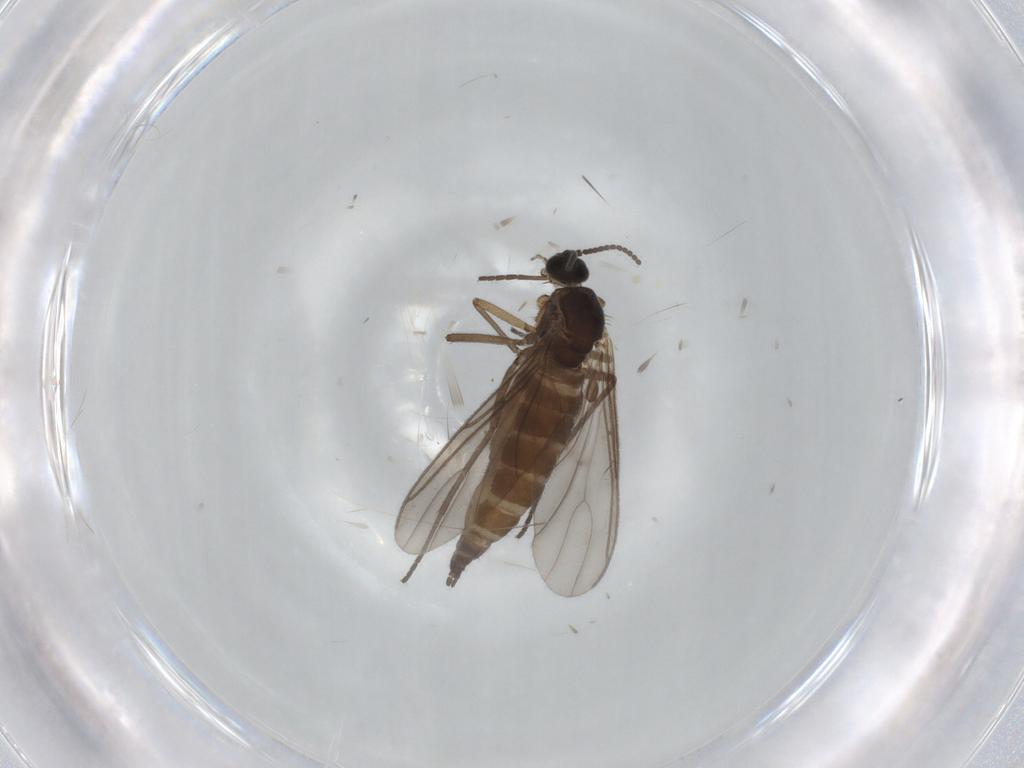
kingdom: Animalia
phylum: Arthropoda
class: Insecta
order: Diptera
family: Sciaridae
